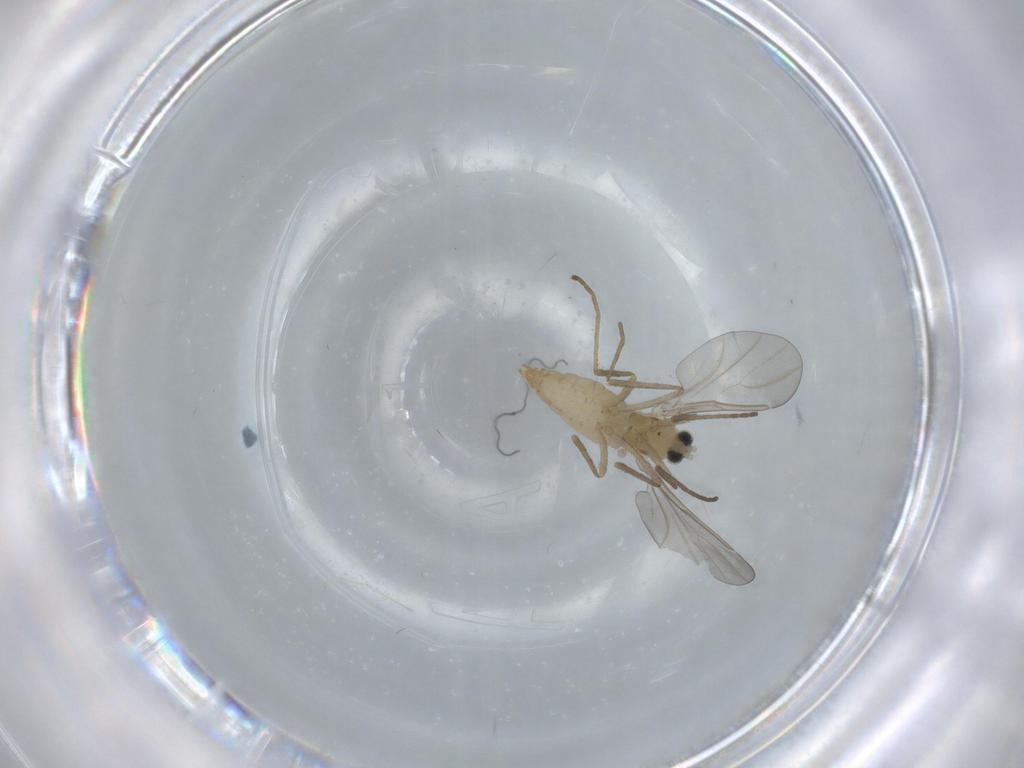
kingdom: Animalia
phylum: Arthropoda
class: Insecta
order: Diptera
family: Cecidomyiidae
